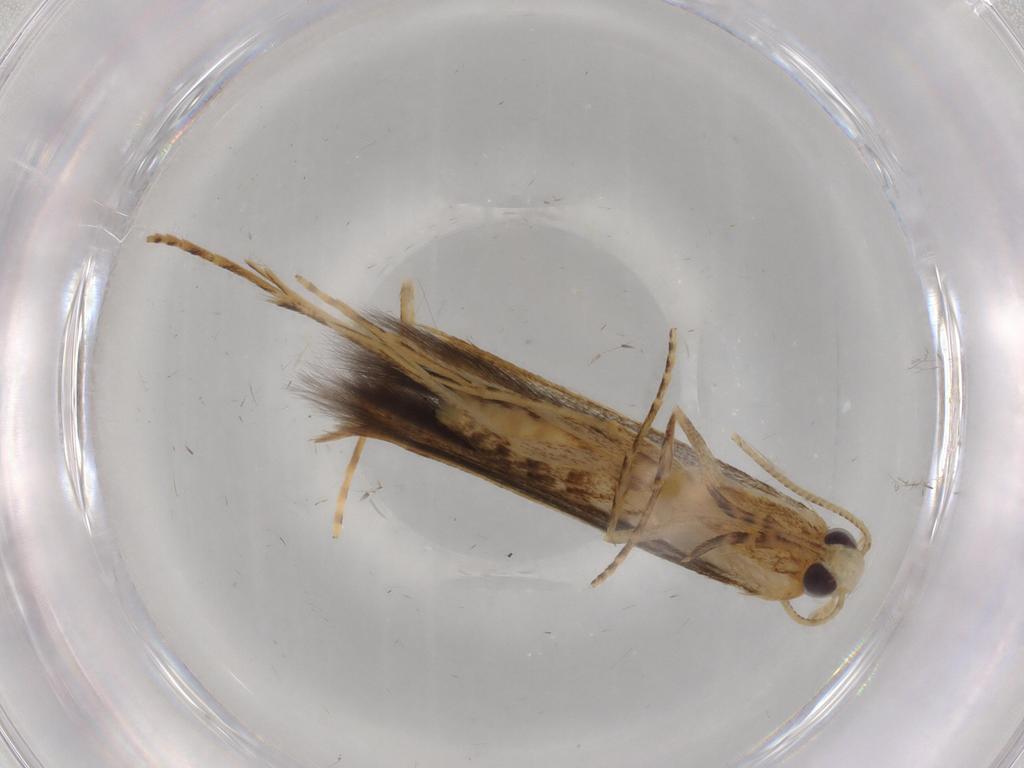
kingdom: Animalia
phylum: Arthropoda
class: Insecta
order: Lepidoptera
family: Batrachedridae
